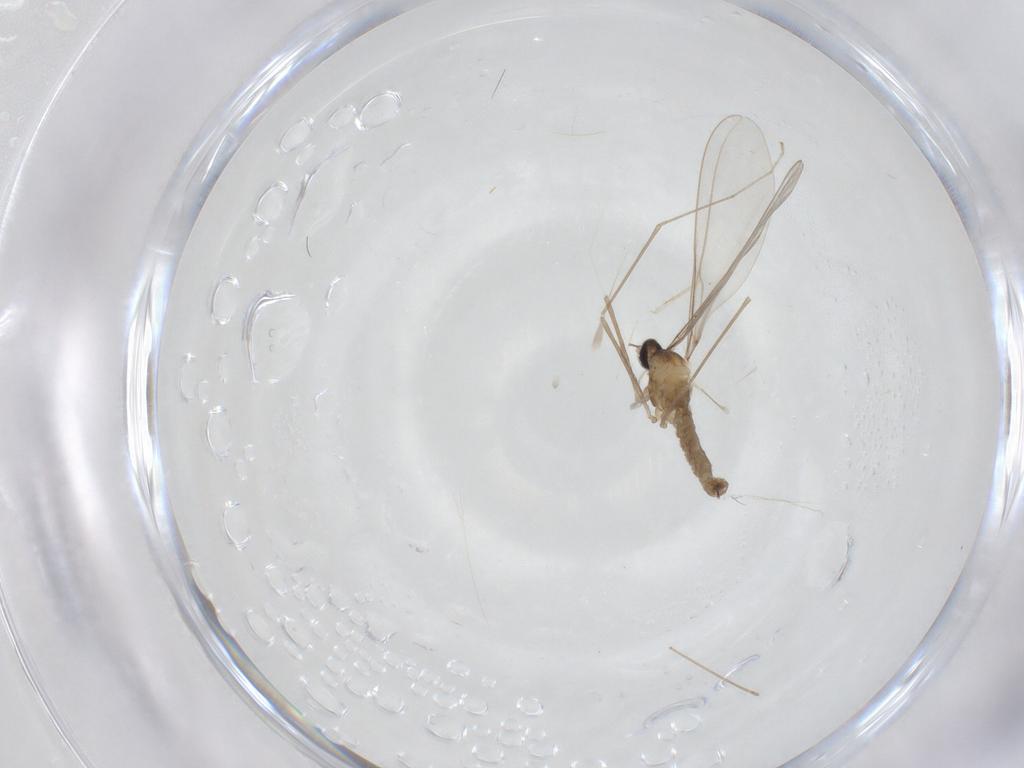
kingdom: Animalia
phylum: Arthropoda
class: Insecta
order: Diptera
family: Cecidomyiidae
